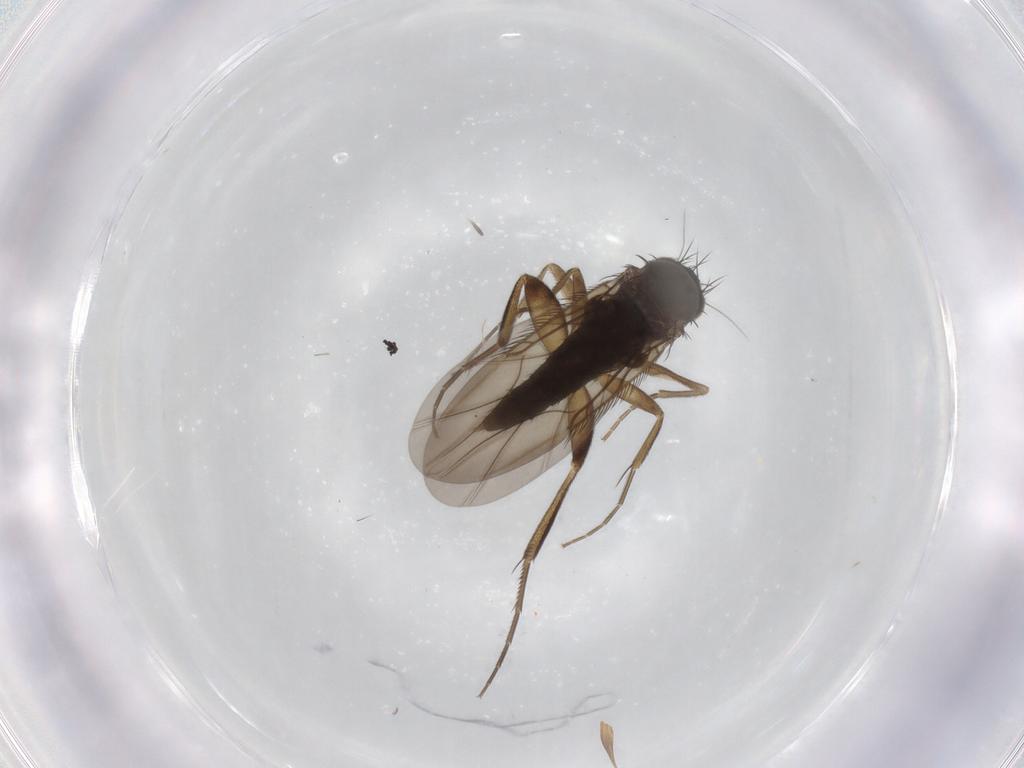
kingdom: Animalia
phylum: Arthropoda
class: Insecta
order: Diptera
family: Phoridae
